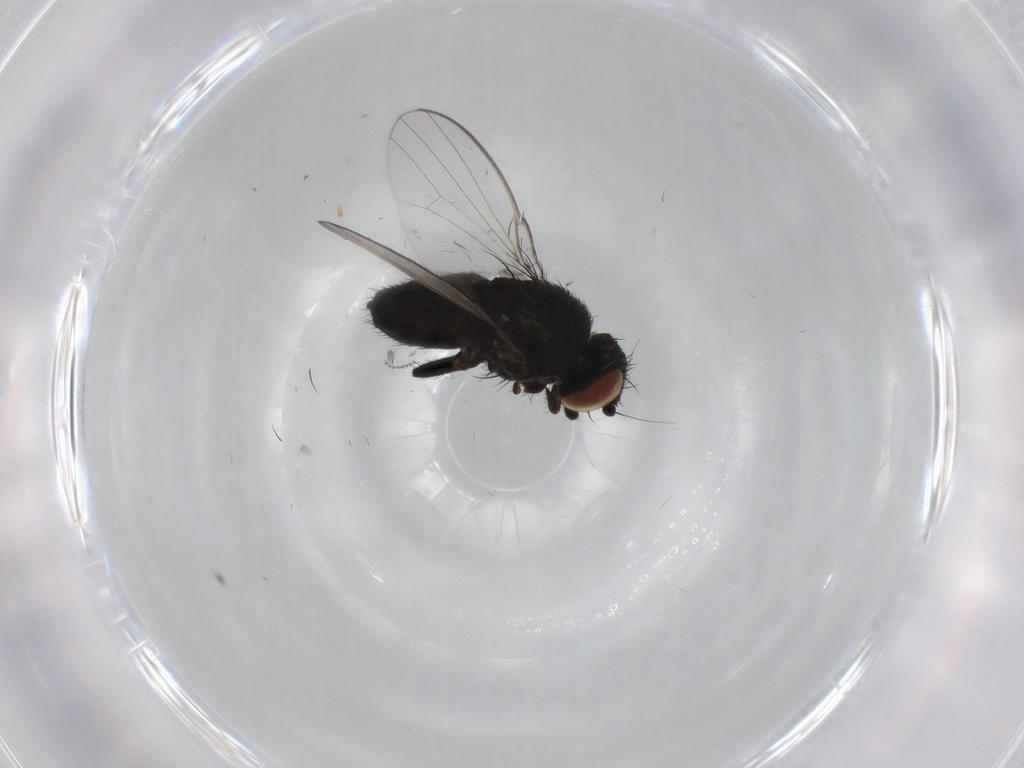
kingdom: Animalia
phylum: Arthropoda
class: Insecta
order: Diptera
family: Milichiidae
